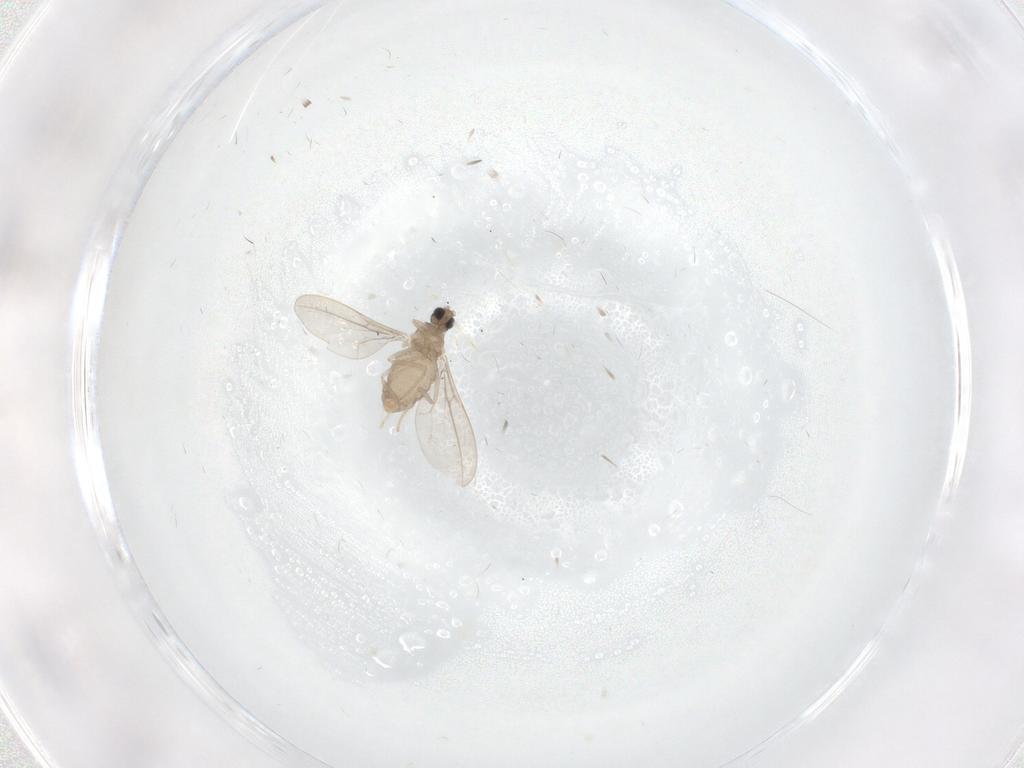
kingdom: Animalia
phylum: Arthropoda
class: Insecta
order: Diptera
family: Cecidomyiidae
